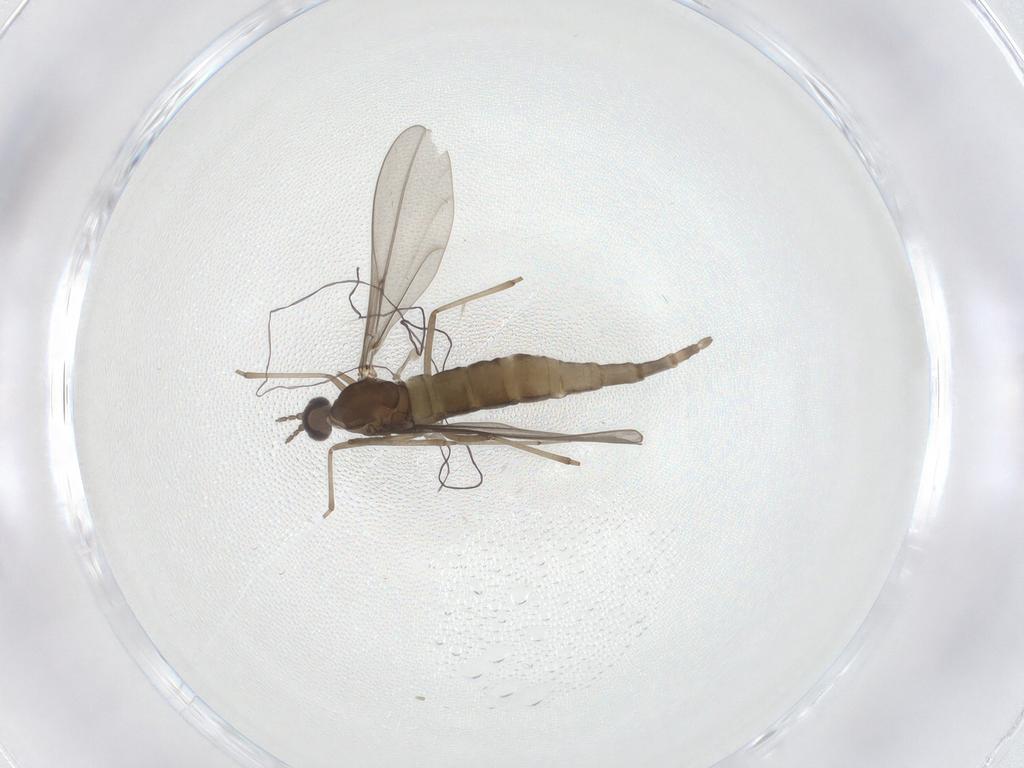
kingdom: Animalia
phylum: Arthropoda
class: Insecta
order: Diptera
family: Cecidomyiidae
